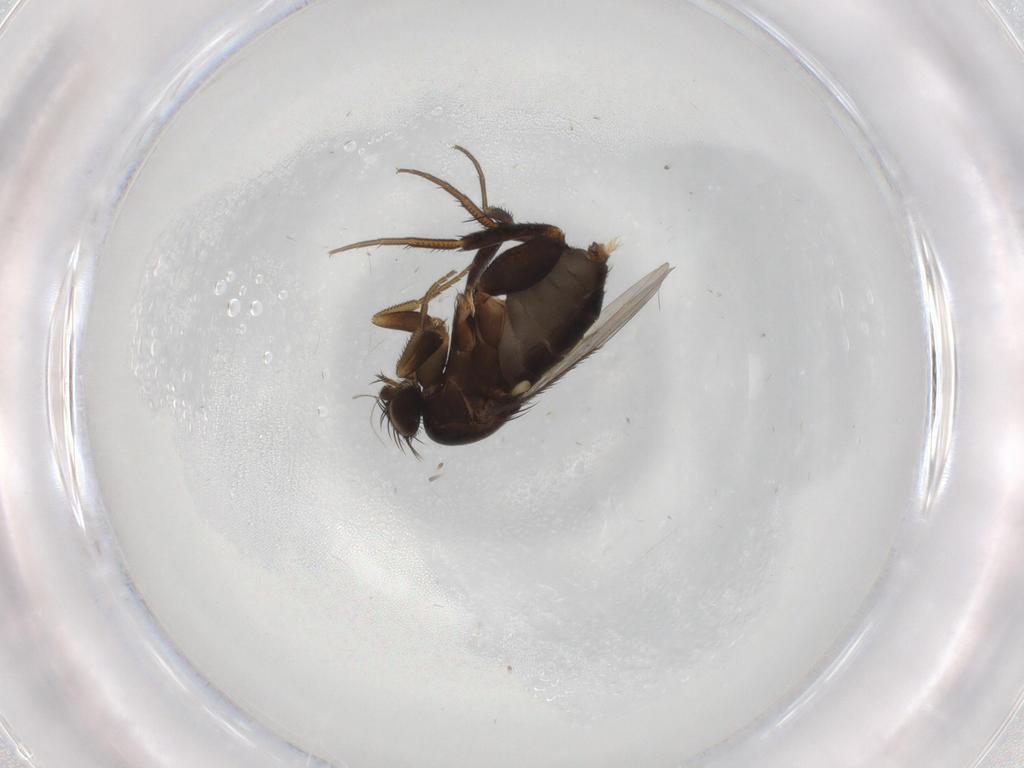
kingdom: Animalia
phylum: Arthropoda
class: Insecta
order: Diptera
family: Phoridae
